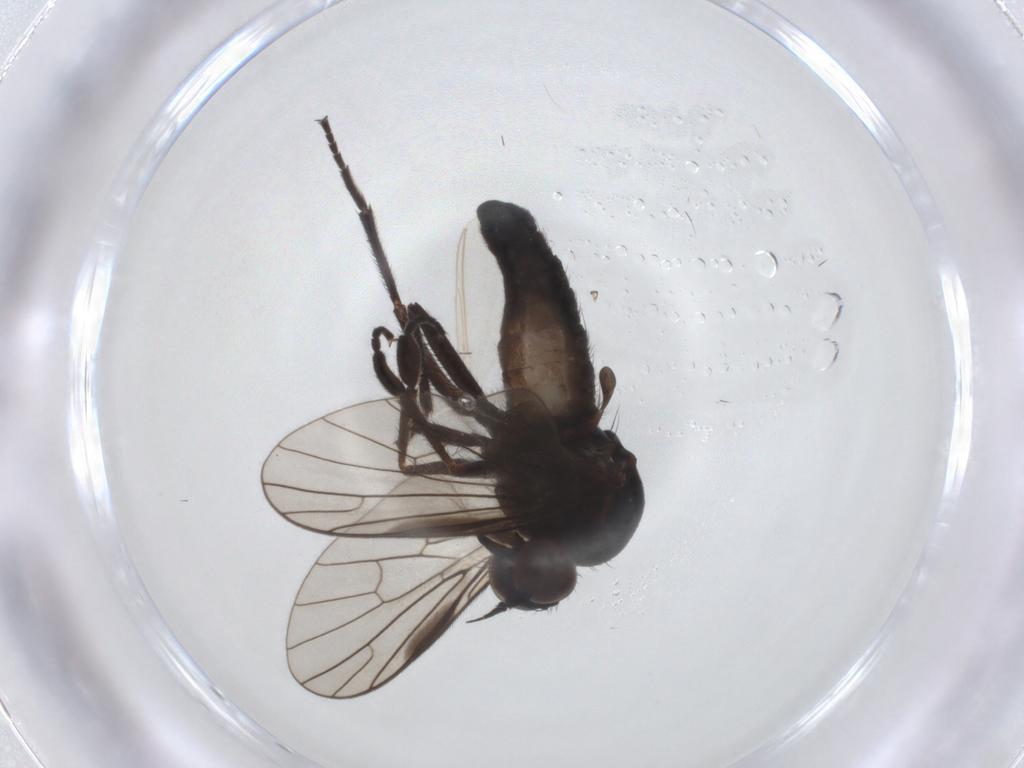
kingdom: Animalia
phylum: Arthropoda
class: Insecta
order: Diptera
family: Empididae
